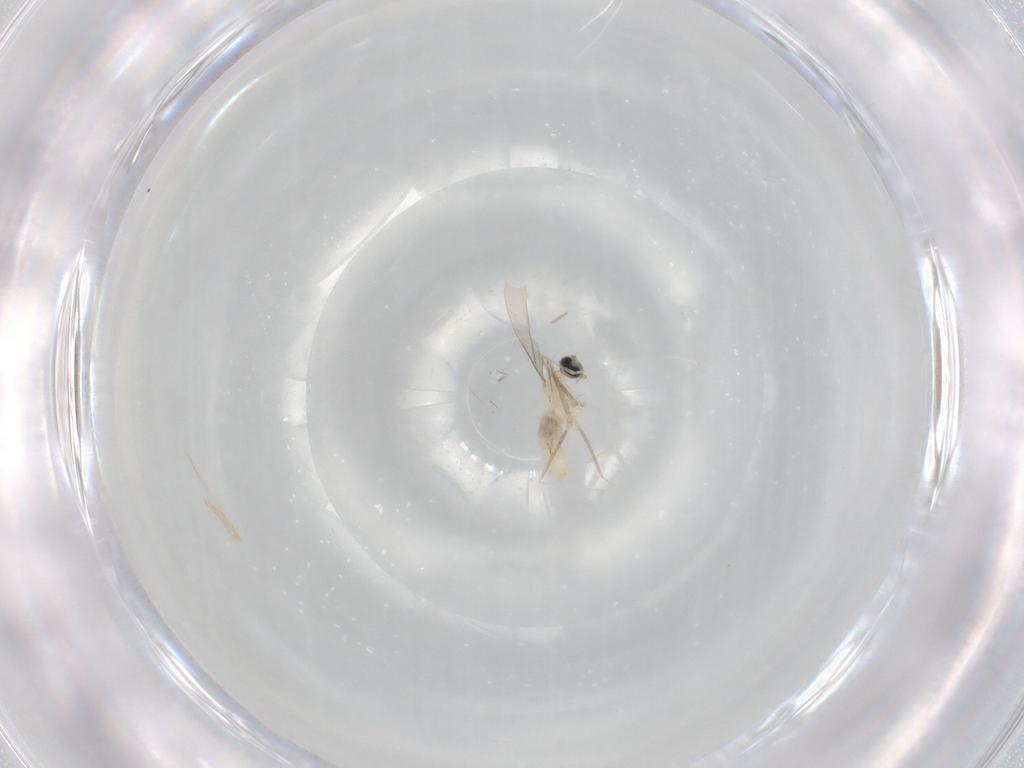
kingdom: Animalia
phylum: Arthropoda
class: Insecta
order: Diptera
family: Cecidomyiidae
